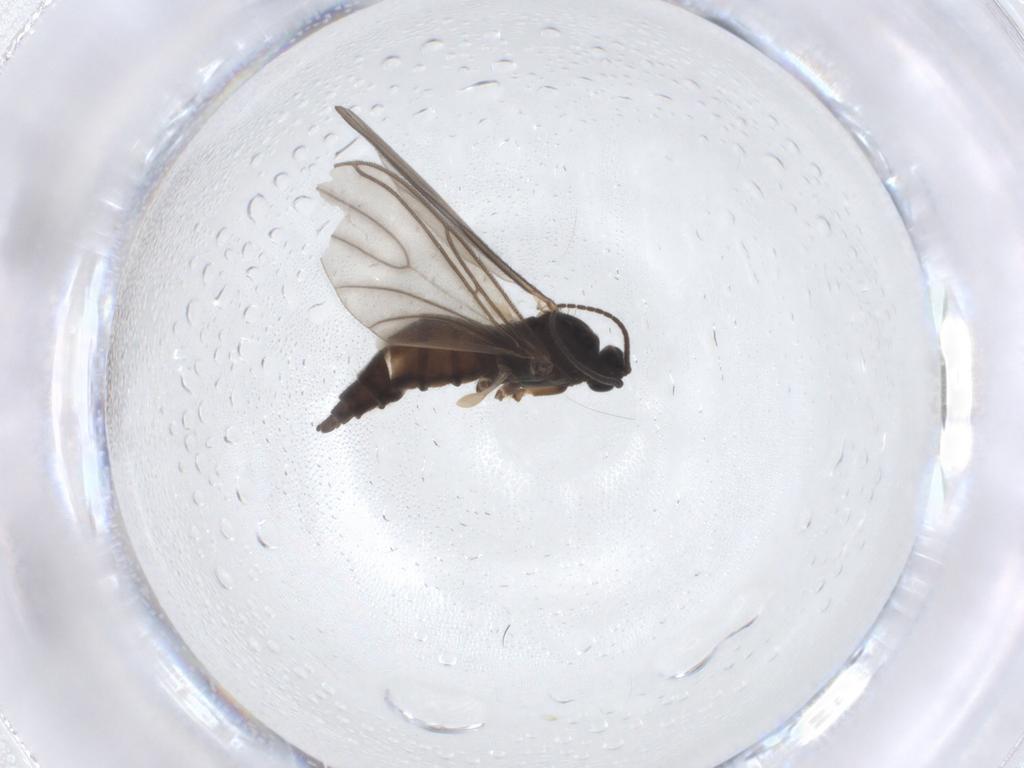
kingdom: Animalia
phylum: Arthropoda
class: Insecta
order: Diptera
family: Sciaridae
